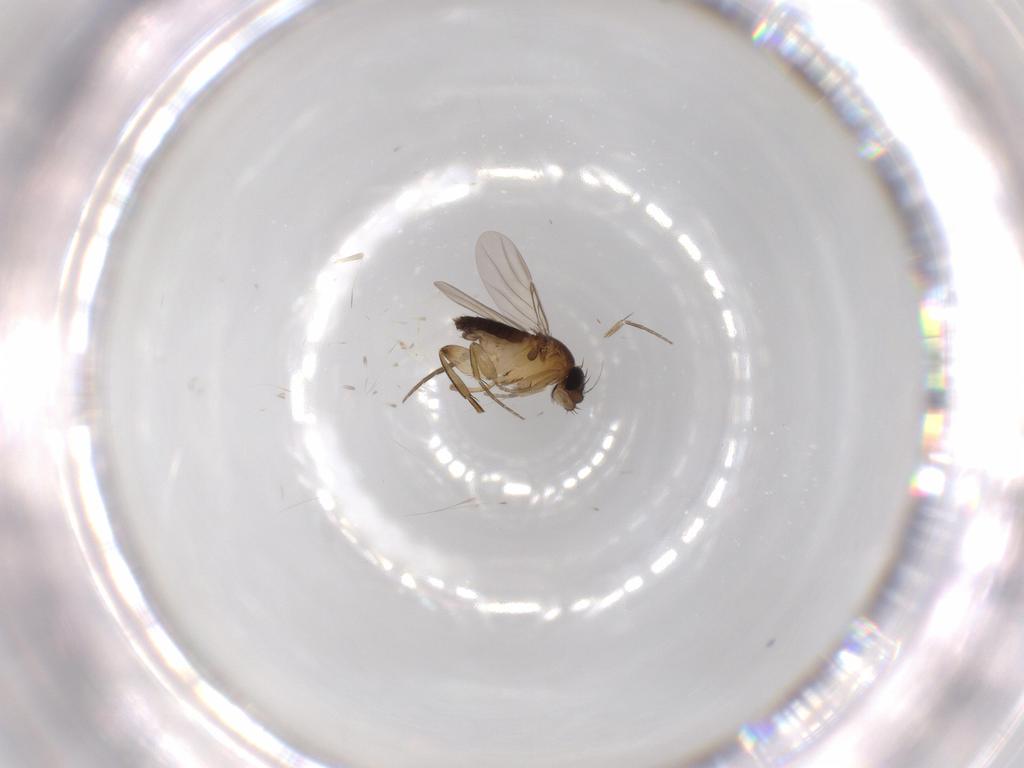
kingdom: Animalia
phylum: Arthropoda
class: Insecta
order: Diptera
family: Phoridae
